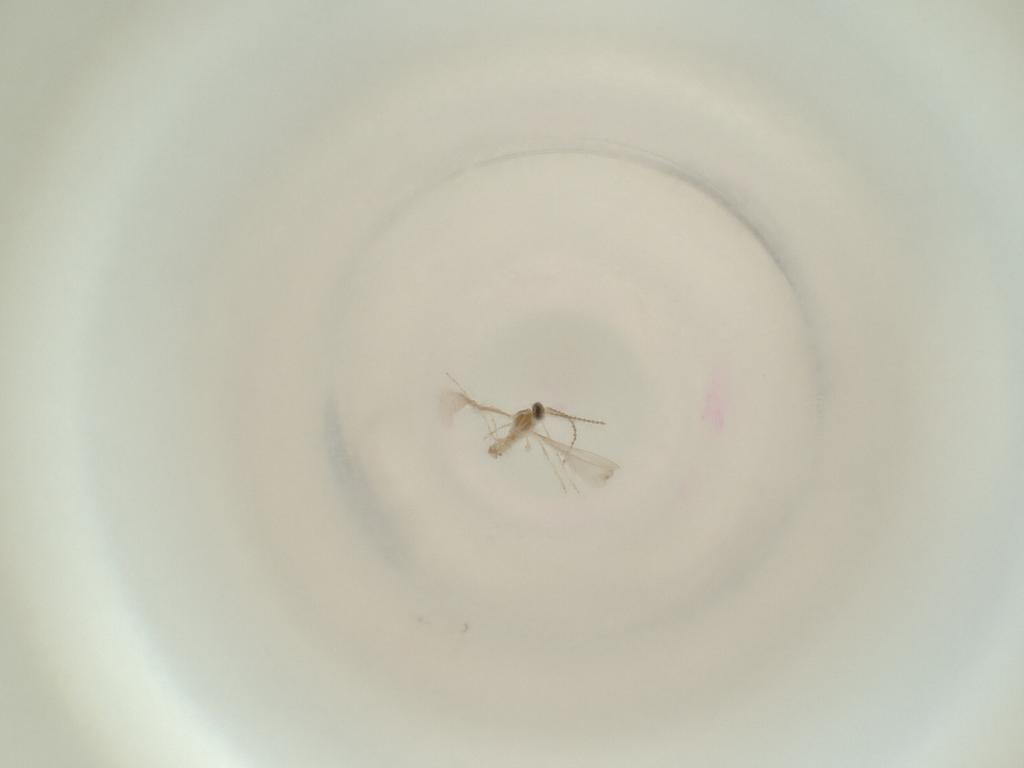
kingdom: Animalia
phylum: Arthropoda
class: Insecta
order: Diptera
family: Cecidomyiidae
